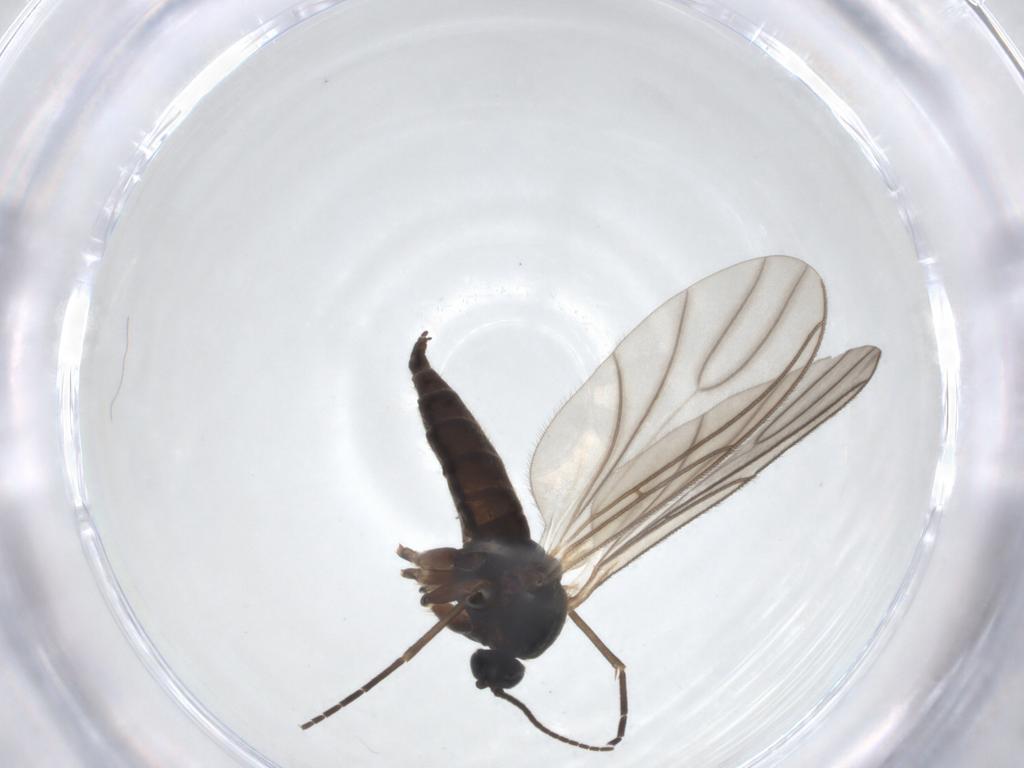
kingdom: Animalia
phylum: Arthropoda
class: Insecta
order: Diptera
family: Sciaridae
